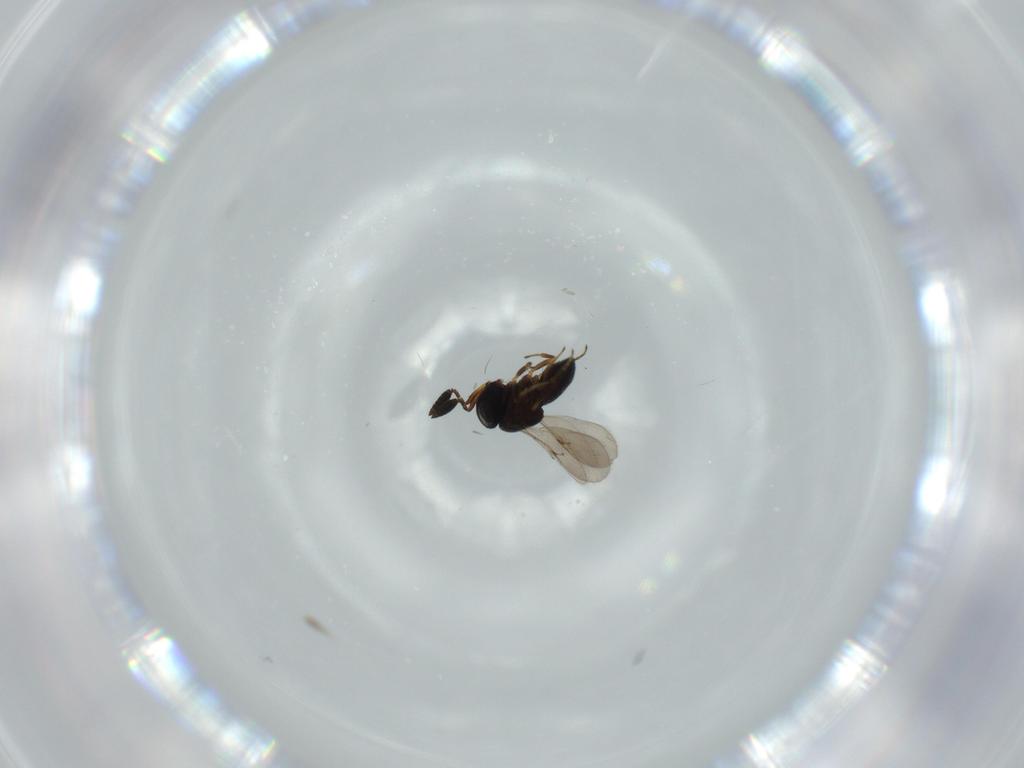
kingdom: Animalia
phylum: Arthropoda
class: Insecta
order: Hymenoptera
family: Scelionidae
